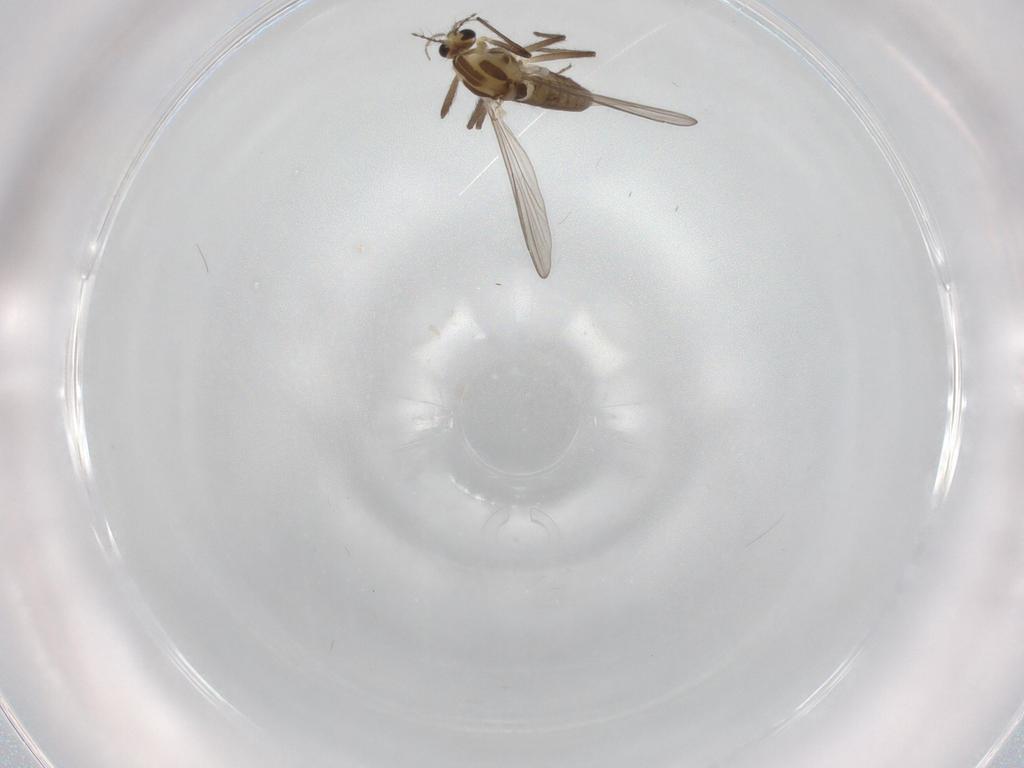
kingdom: Animalia
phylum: Arthropoda
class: Insecta
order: Diptera
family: Chironomidae
